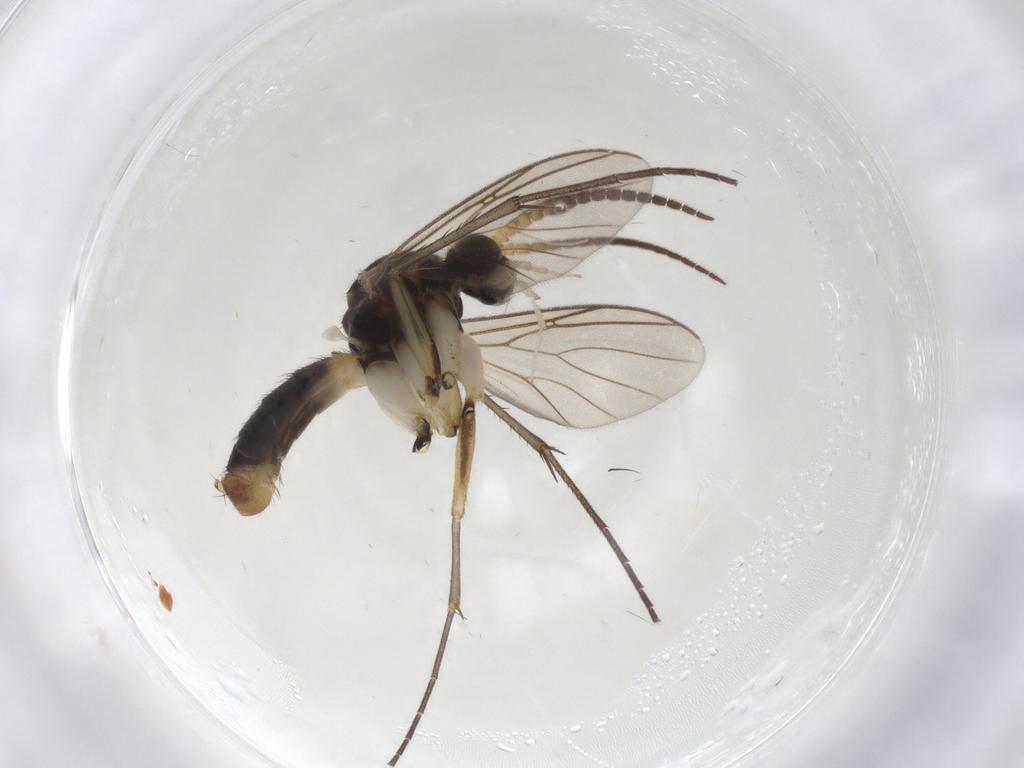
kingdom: Animalia
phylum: Arthropoda
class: Insecta
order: Diptera
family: Mycetophilidae
